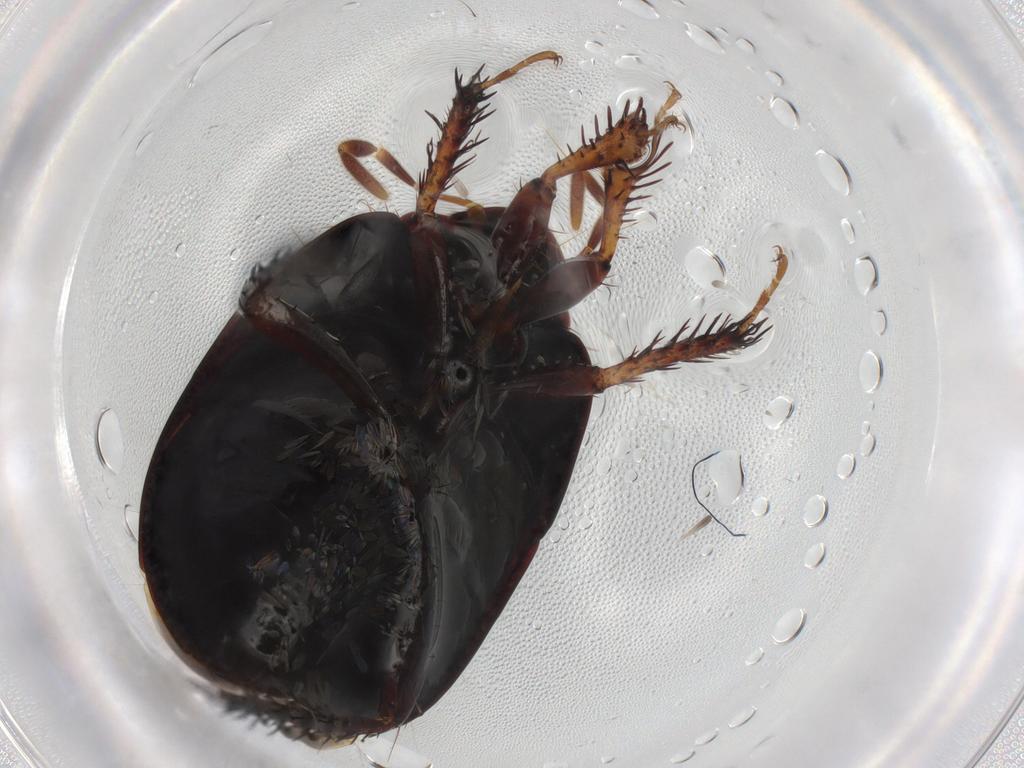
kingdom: Animalia
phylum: Arthropoda
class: Insecta
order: Hemiptera
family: Cydnidae
